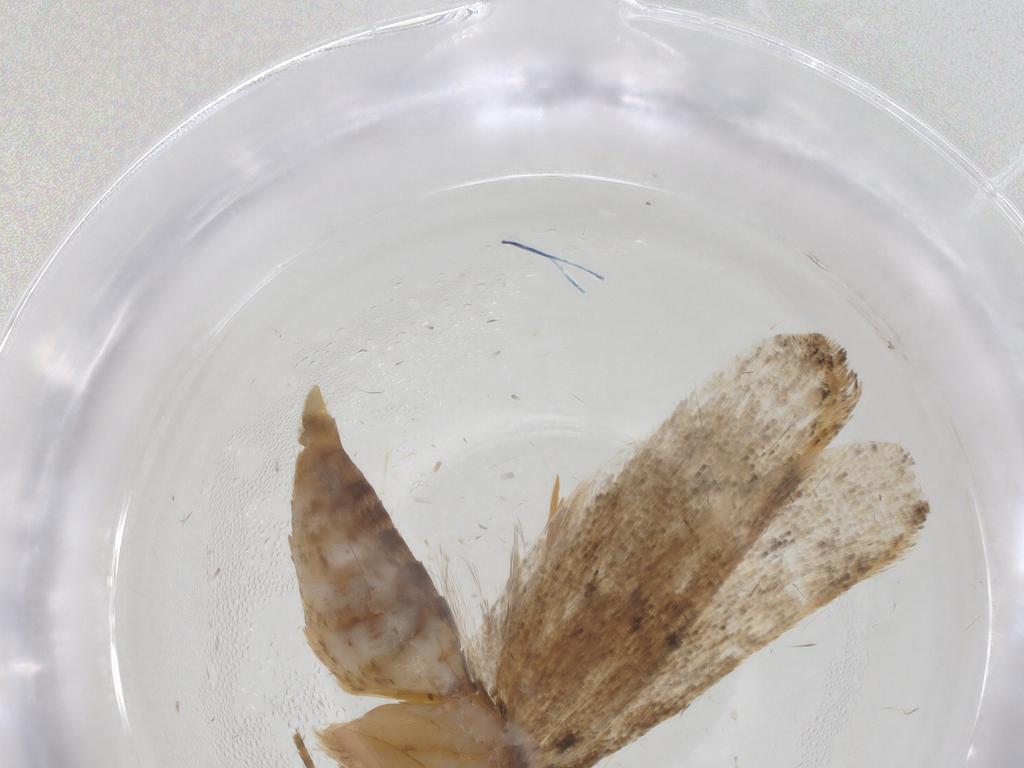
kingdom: Animalia
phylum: Arthropoda
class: Insecta
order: Lepidoptera
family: Oecophoridae
